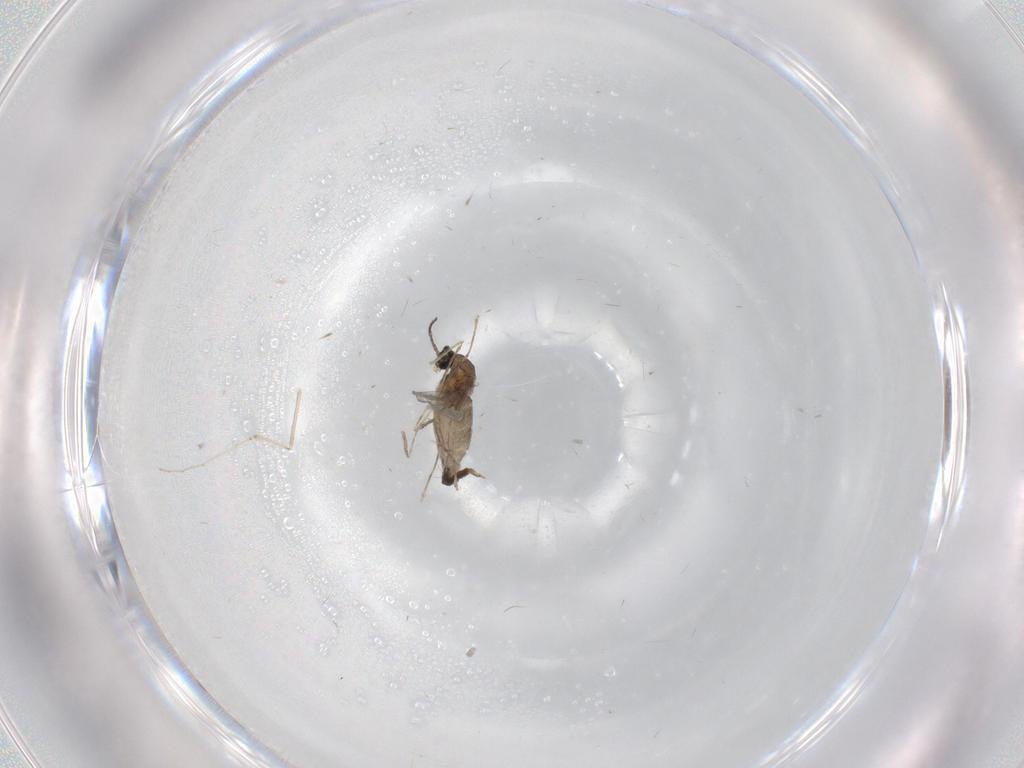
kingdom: Animalia
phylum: Arthropoda
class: Insecta
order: Diptera
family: Cecidomyiidae
